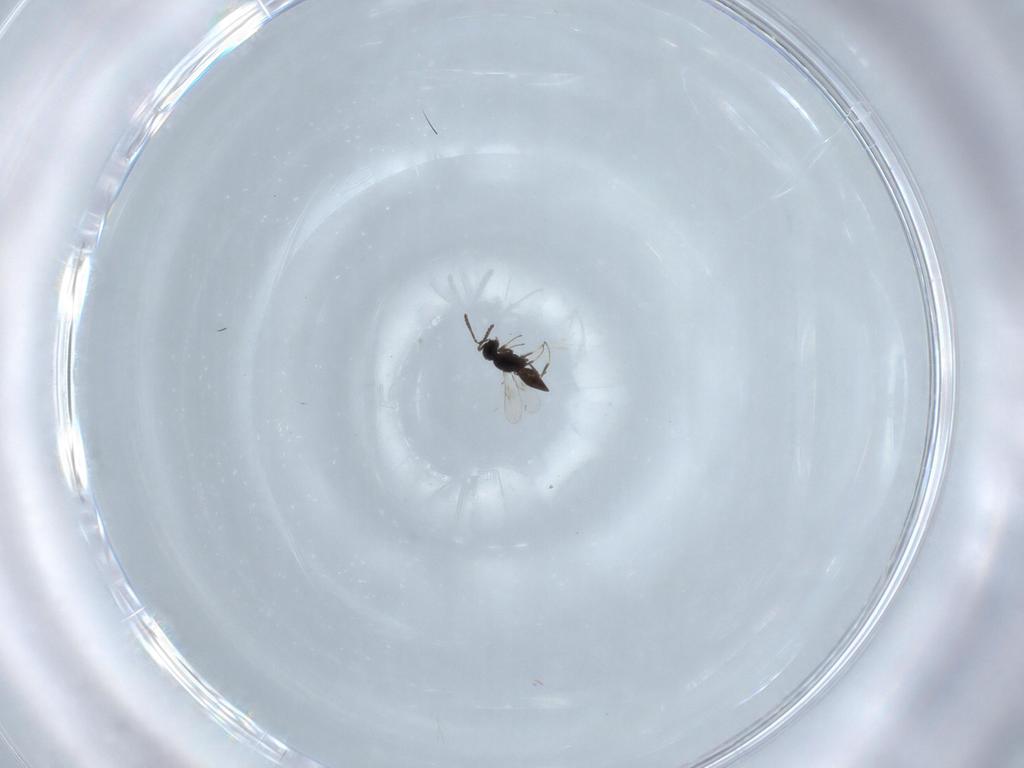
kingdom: Animalia
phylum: Arthropoda
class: Insecta
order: Hymenoptera
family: Scelionidae
